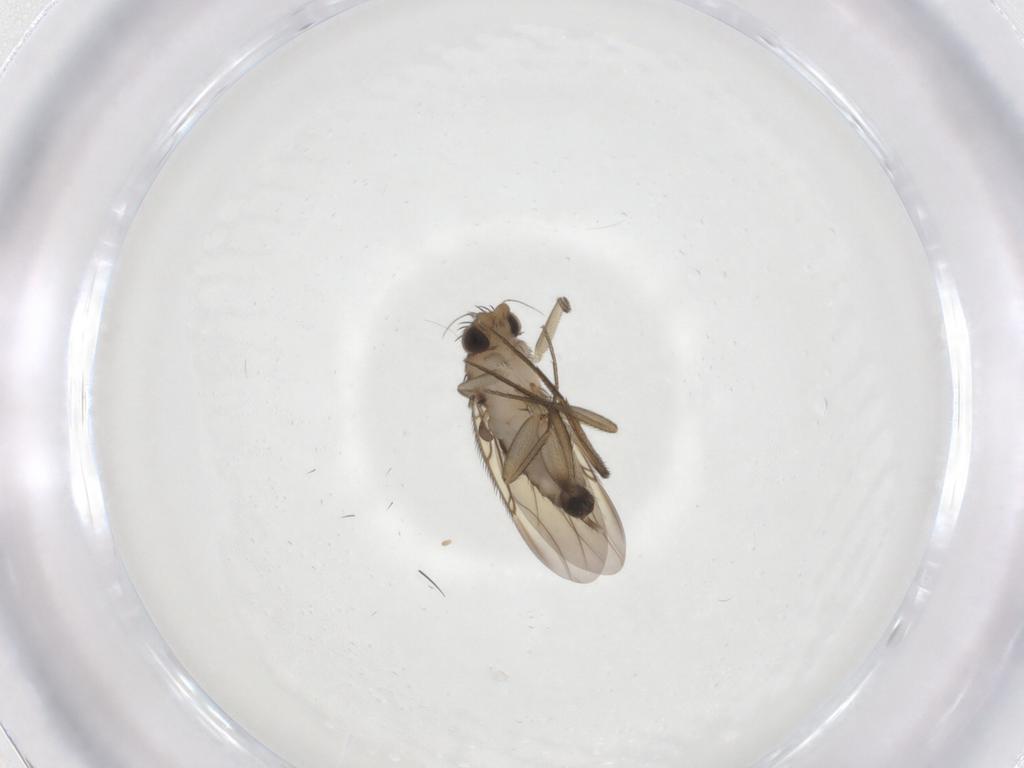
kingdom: Animalia
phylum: Arthropoda
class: Insecta
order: Diptera
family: Phoridae
